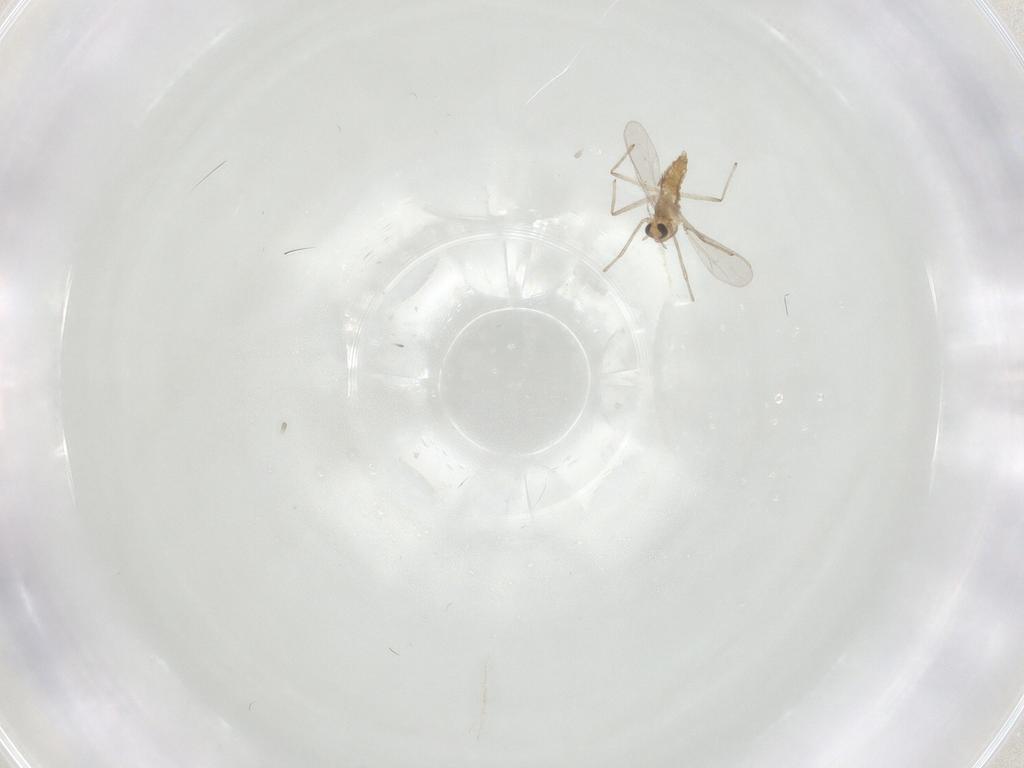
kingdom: Animalia
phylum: Arthropoda
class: Insecta
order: Diptera
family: Chironomidae
